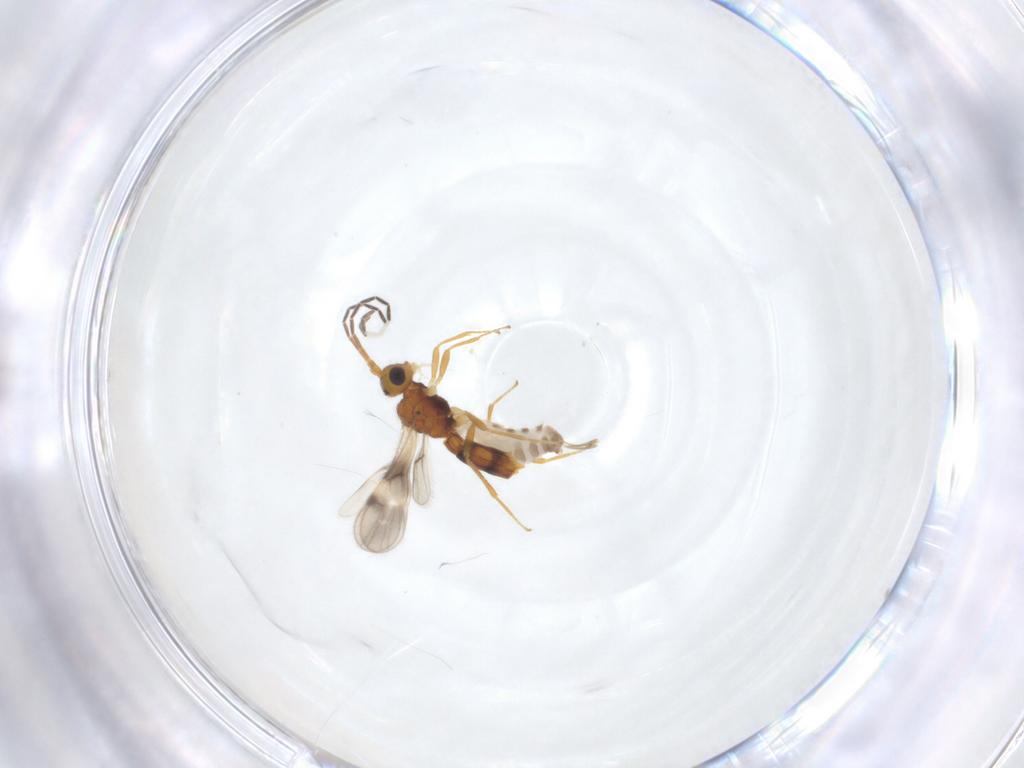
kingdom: Animalia
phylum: Arthropoda
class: Insecta
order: Hymenoptera
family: Braconidae
